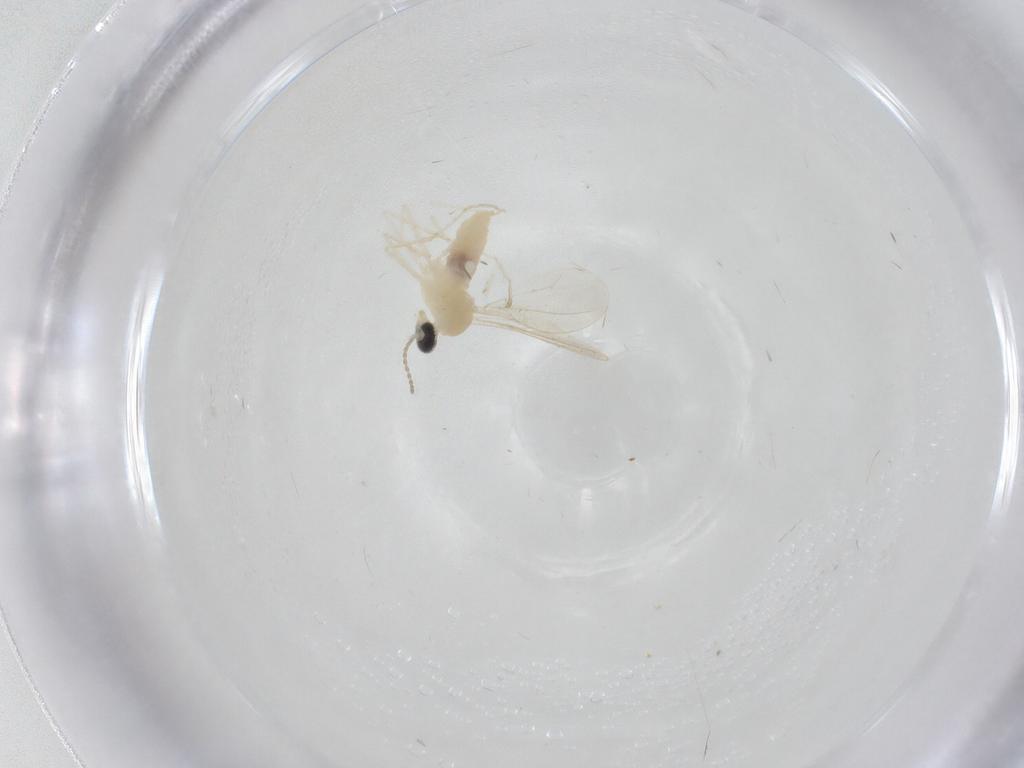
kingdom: Animalia
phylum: Arthropoda
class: Insecta
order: Diptera
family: Cecidomyiidae
